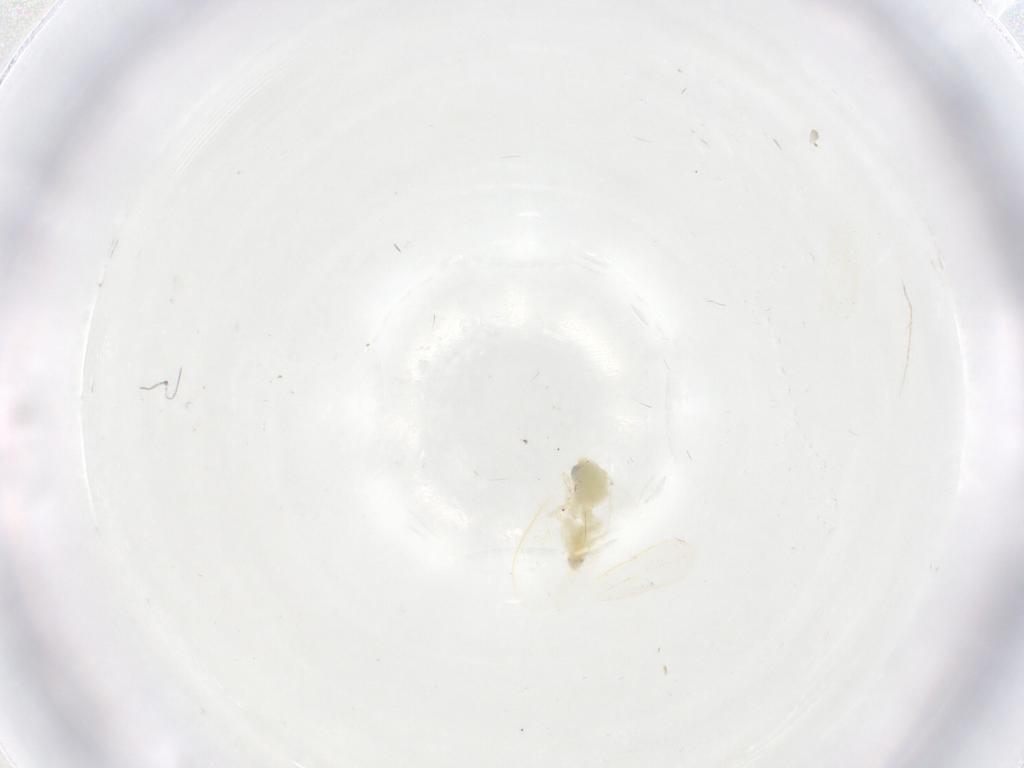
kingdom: Animalia
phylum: Arthropoda
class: Insecta
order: Hemiptera
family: Aleyrodidae
